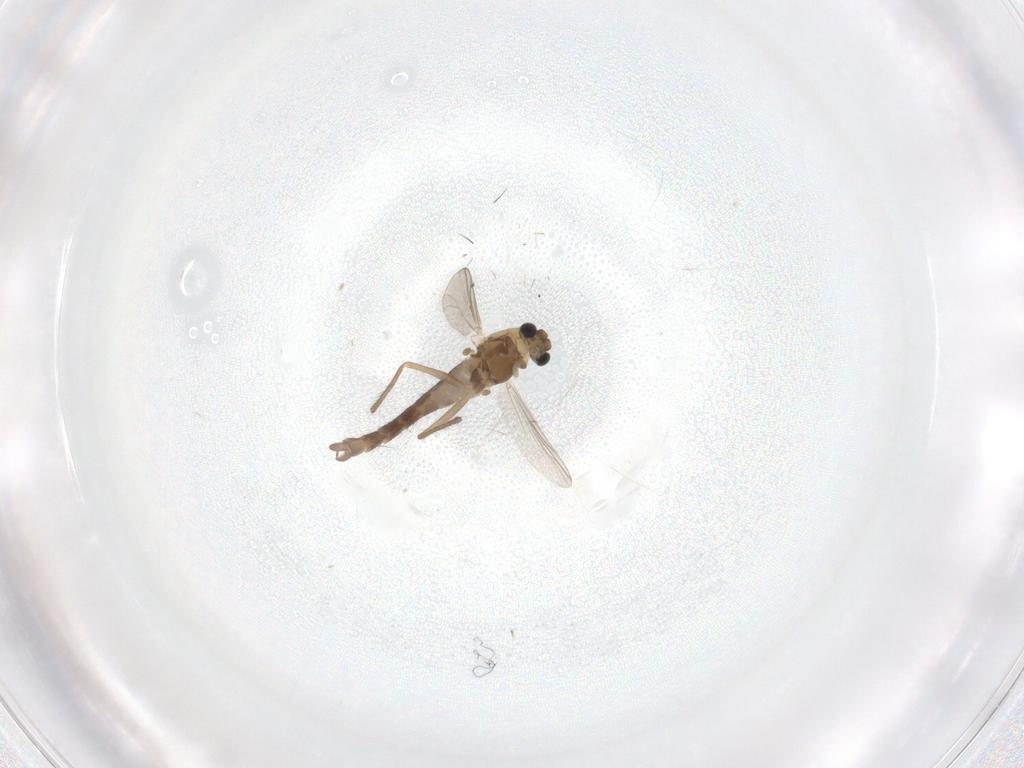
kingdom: Animalia
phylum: Arthropoda
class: Insecta
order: Diptera
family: Chironomidae
